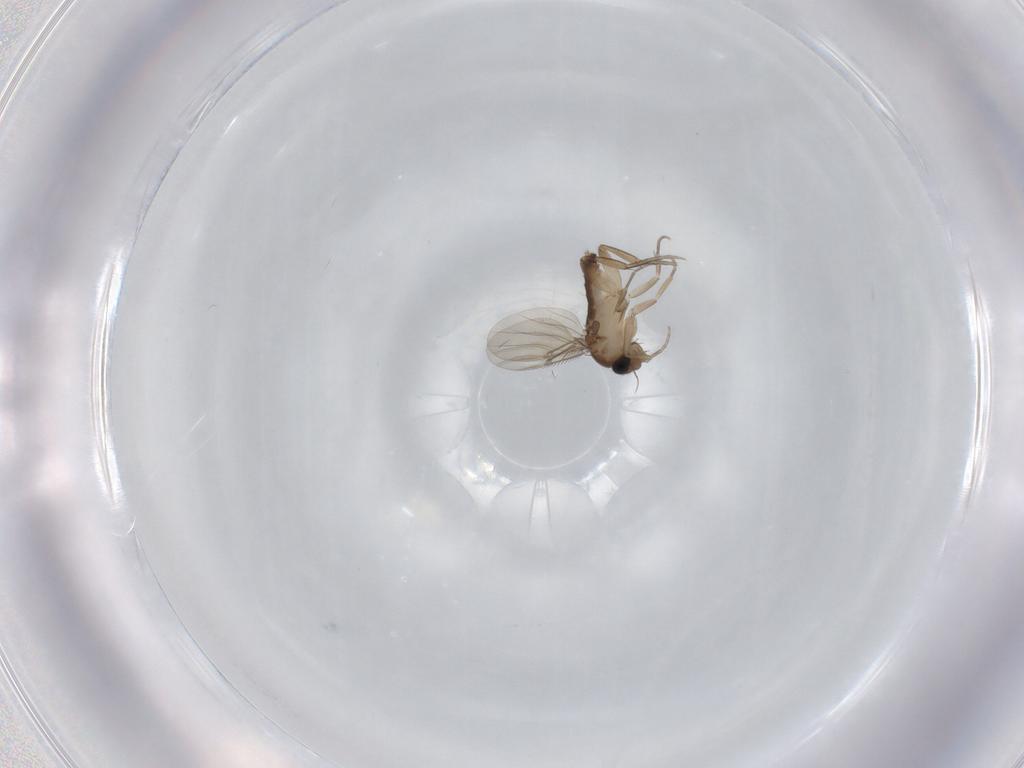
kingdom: Animalia
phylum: Arthropoda
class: Insecta
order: Diptera
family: Phoridae
